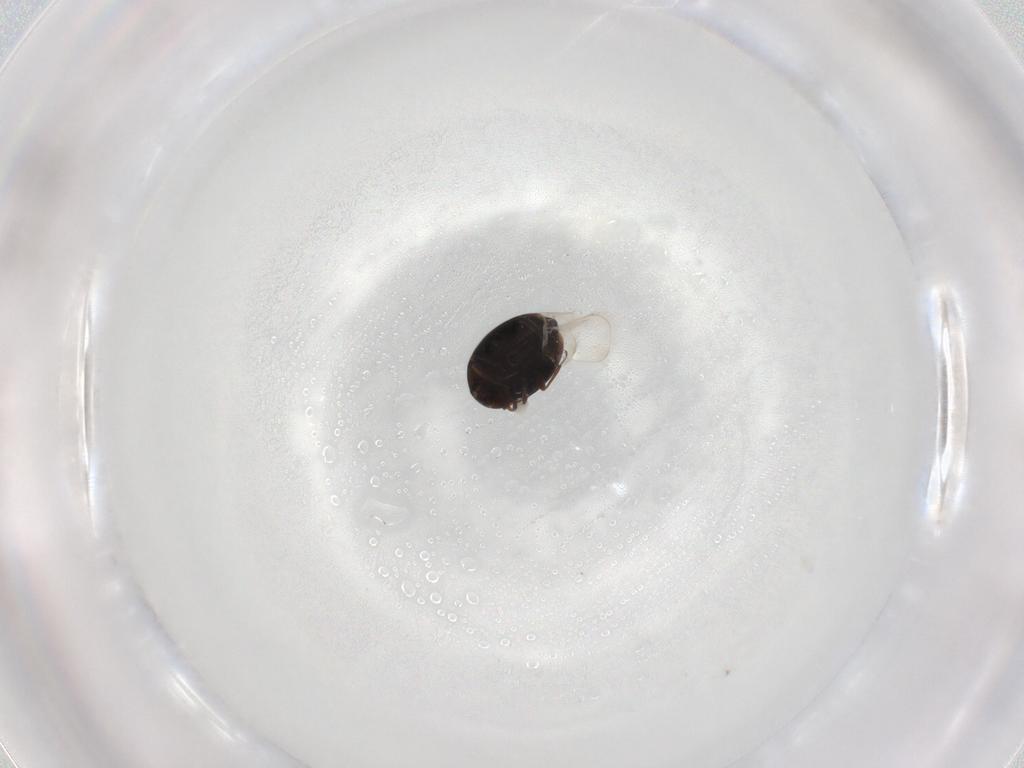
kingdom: Animalia
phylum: Arthropoda
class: Insecta
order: Coleoptera
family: Corylophidae
